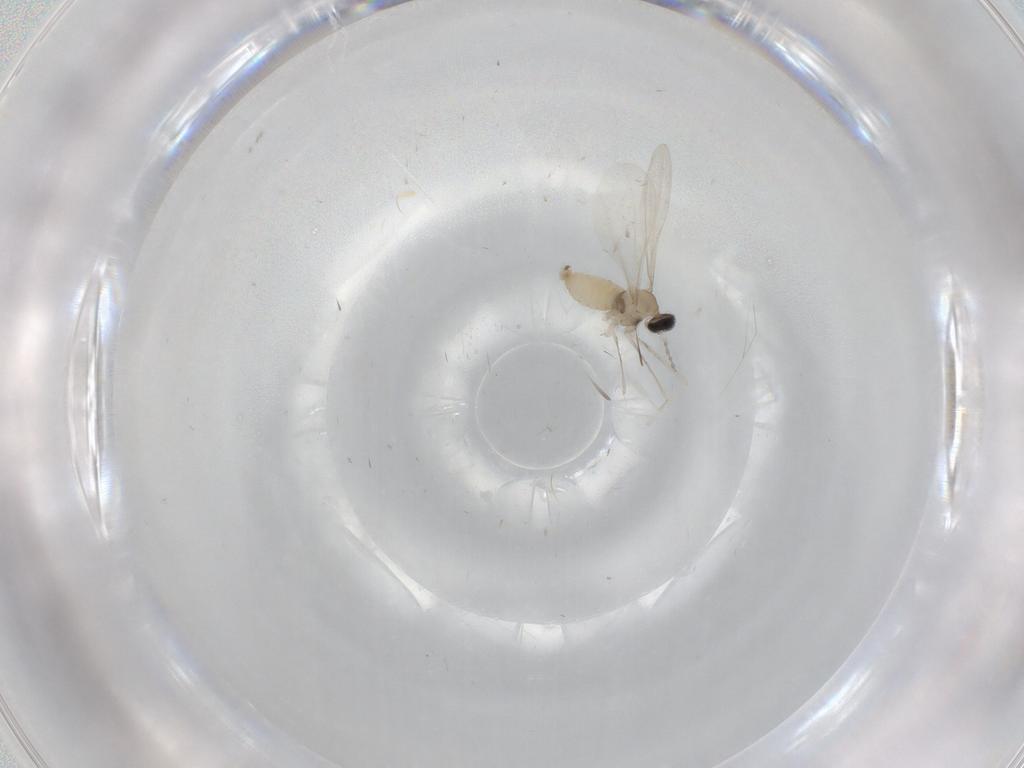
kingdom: Animalia
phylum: Arthropoda
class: Insecta
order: Diptera
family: Cecidomyiidae
